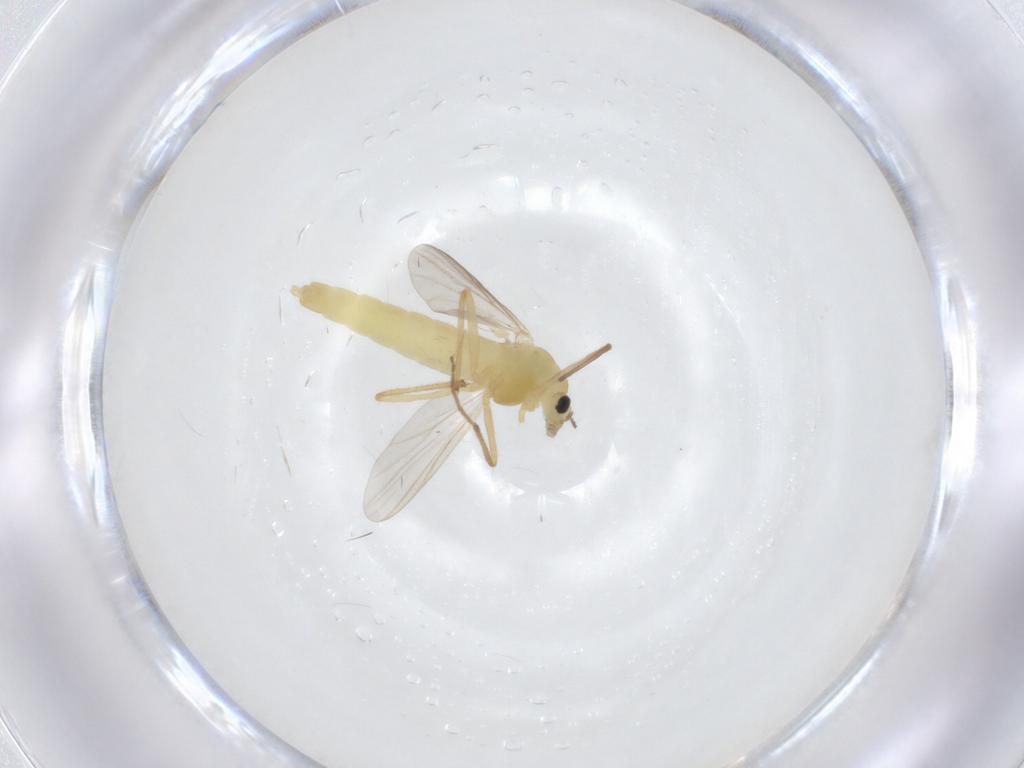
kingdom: Animalia
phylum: Arthropoda
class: Insecta
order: Diptera
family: Chironomidae
